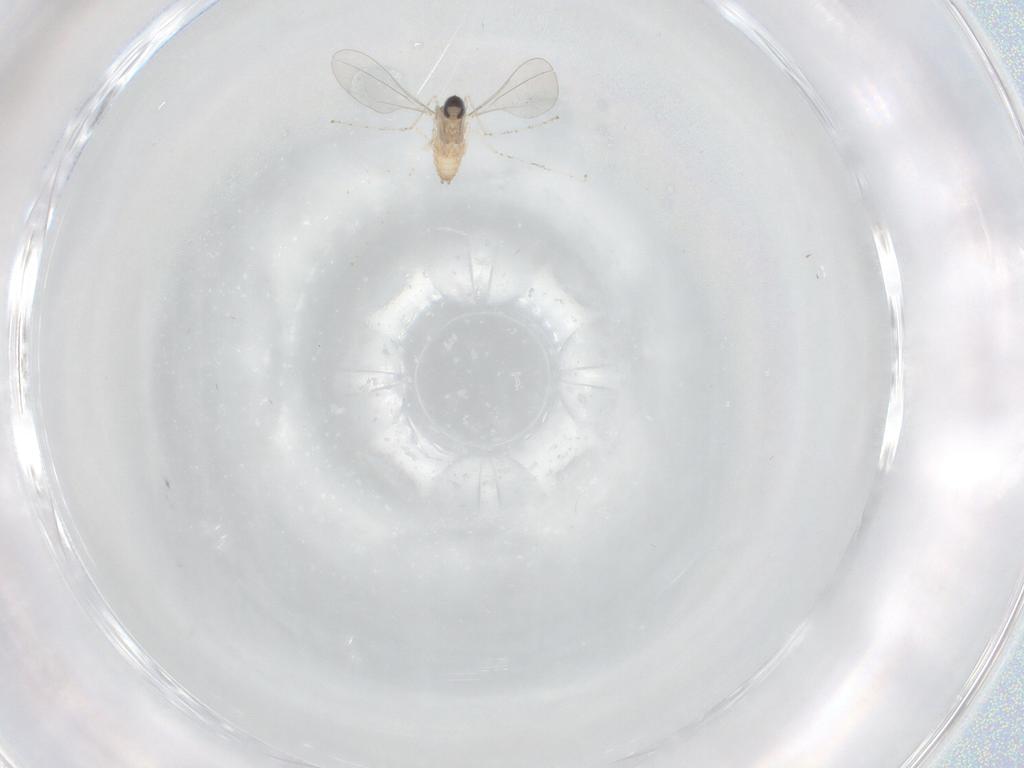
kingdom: Animalia
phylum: Arthropoda
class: Insecta
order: Diptera
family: Cecidomyiidae
